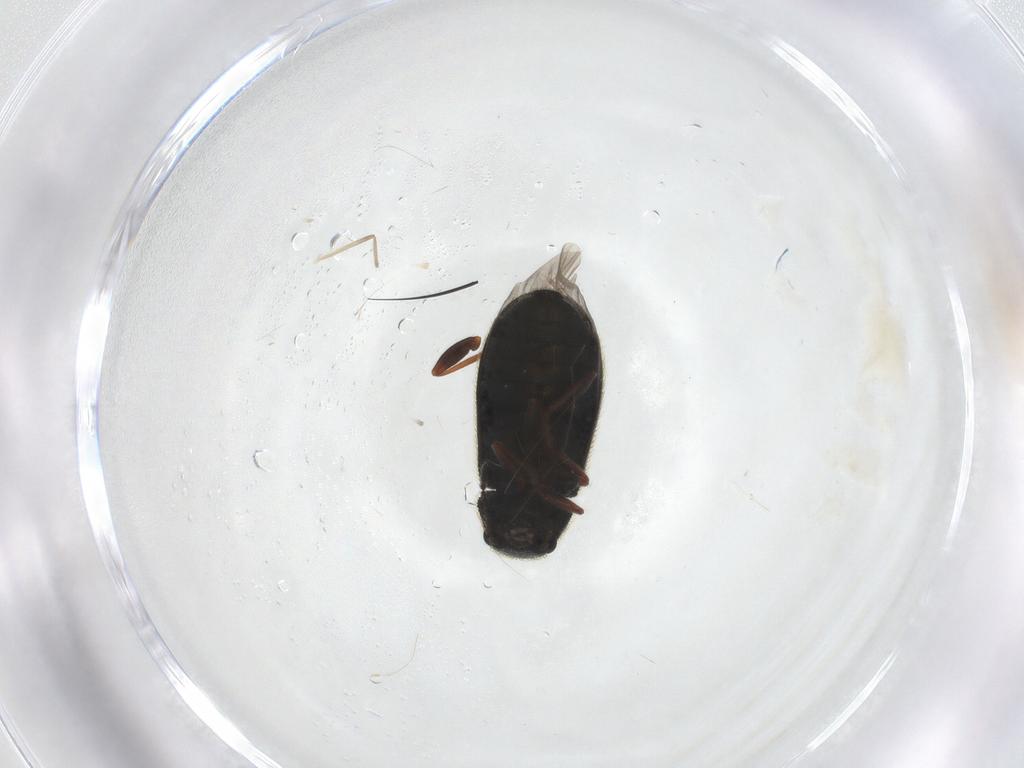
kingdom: Animalia
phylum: Arthropoda
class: Insecta
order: Coleoptera
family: Melyridae
